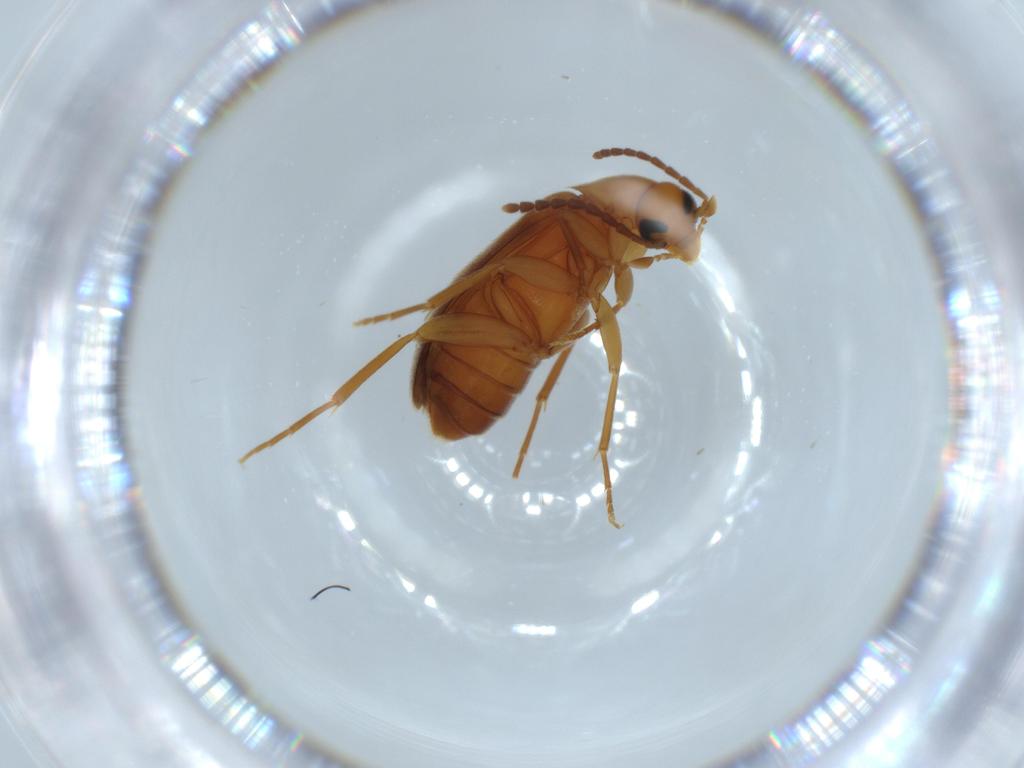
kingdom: Animalia
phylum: Arthropoda
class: Insecta
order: Coleoptera
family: Scraptiidae
